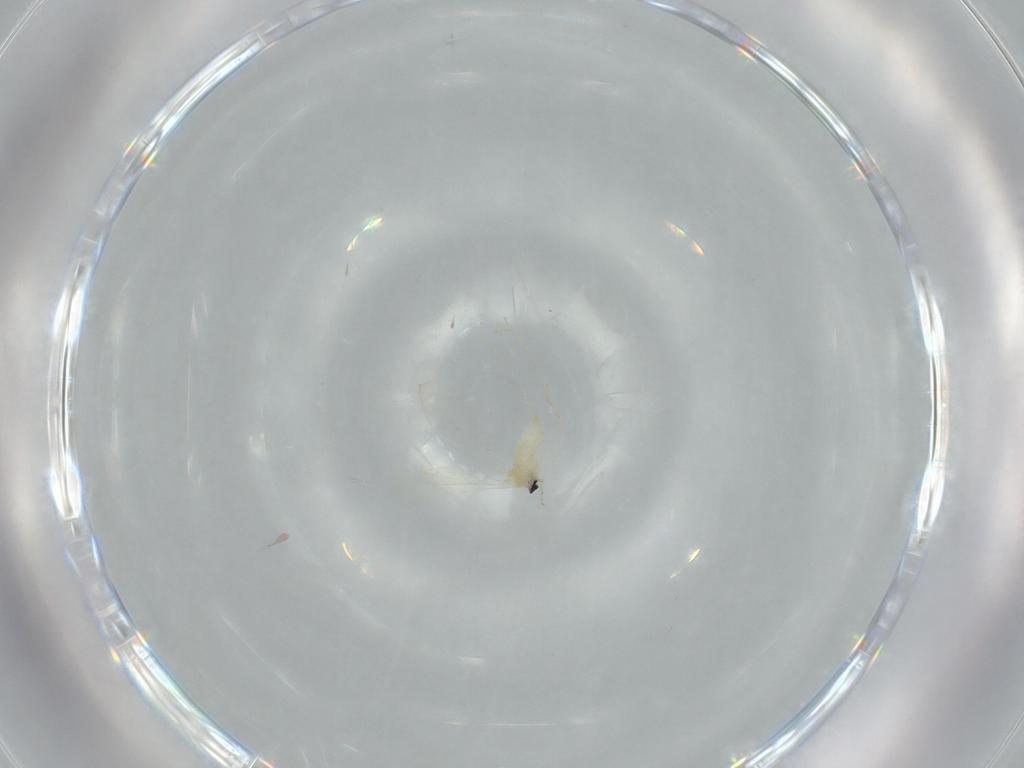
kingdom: Animalia
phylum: Arthropoda
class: Insecta
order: Diptera
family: Cecidomyiidae
